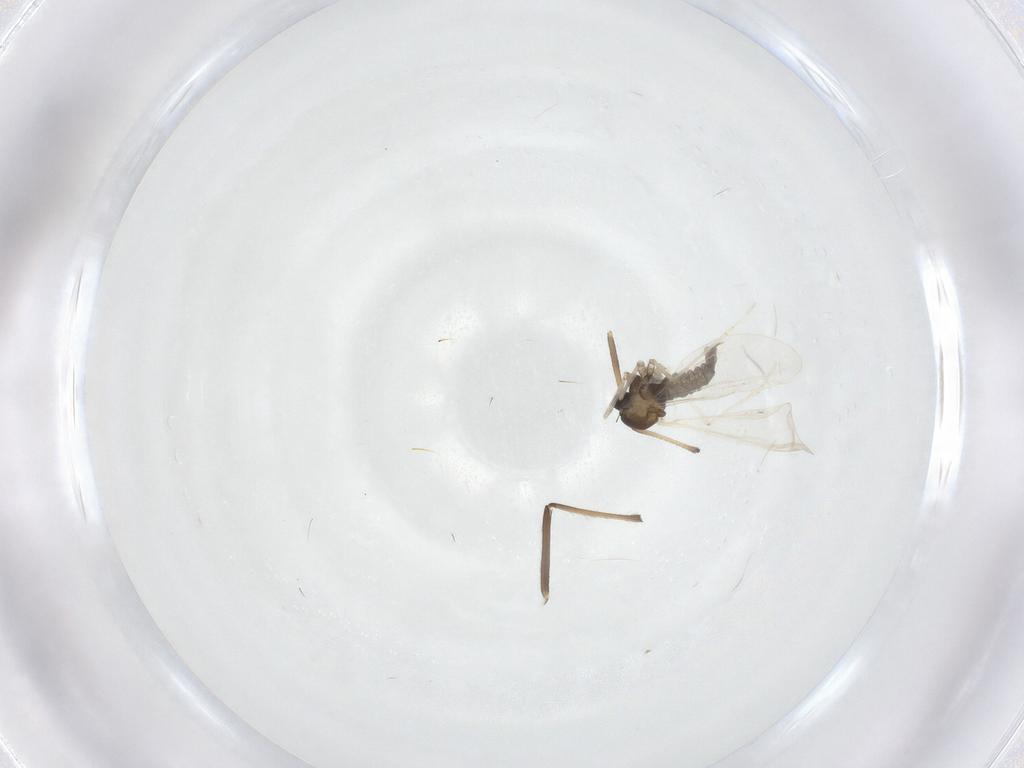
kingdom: Animalia
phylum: Arthropoda
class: Insecta
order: Diptera
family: Cecidomyiidae
